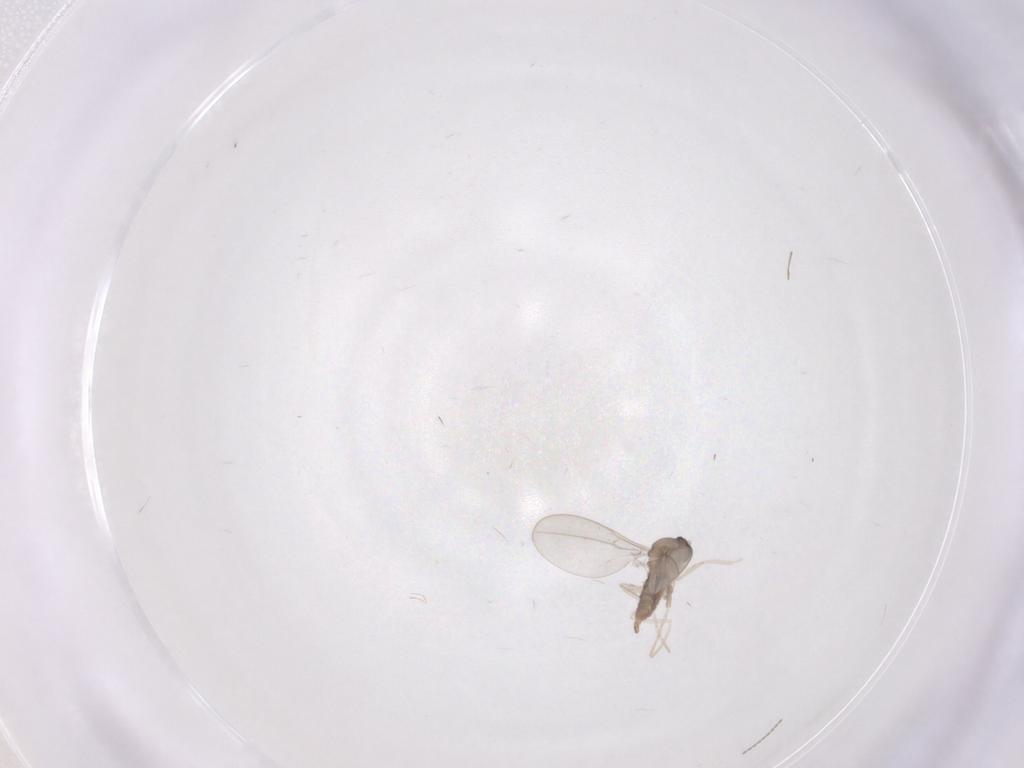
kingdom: Animalia
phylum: Arthropoda
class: Insecta
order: Diptera
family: Cecidomyiidae
